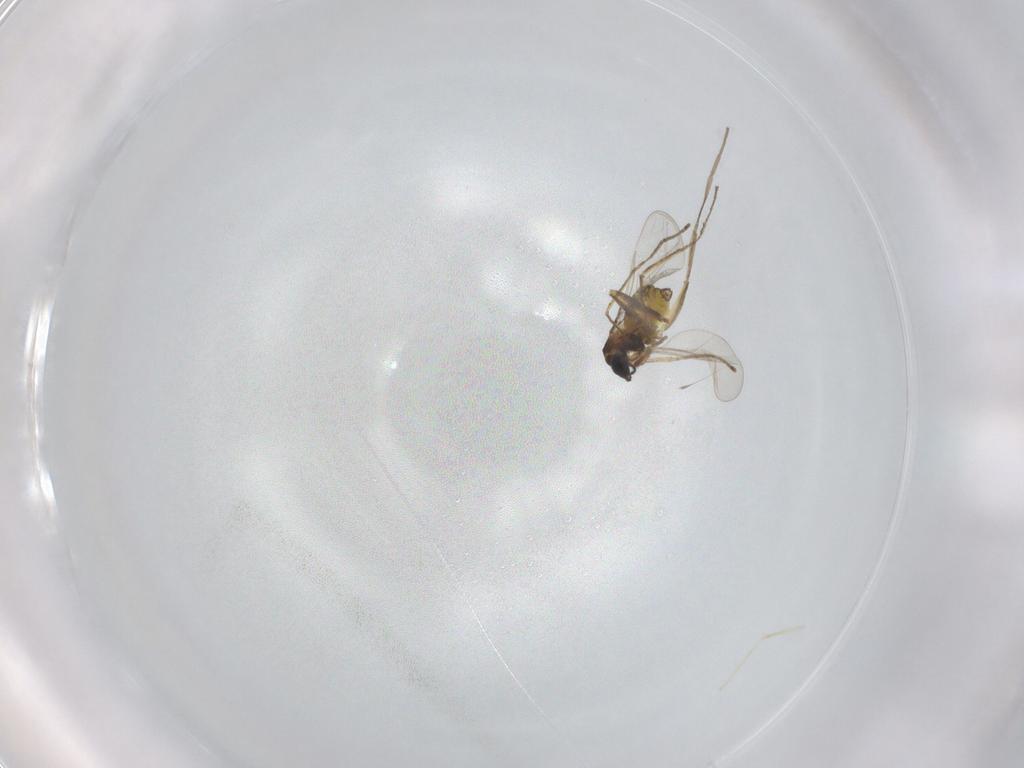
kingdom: Animalia
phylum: Arthropoda
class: Insecta
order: Diptera
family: Cecidomyiidae
